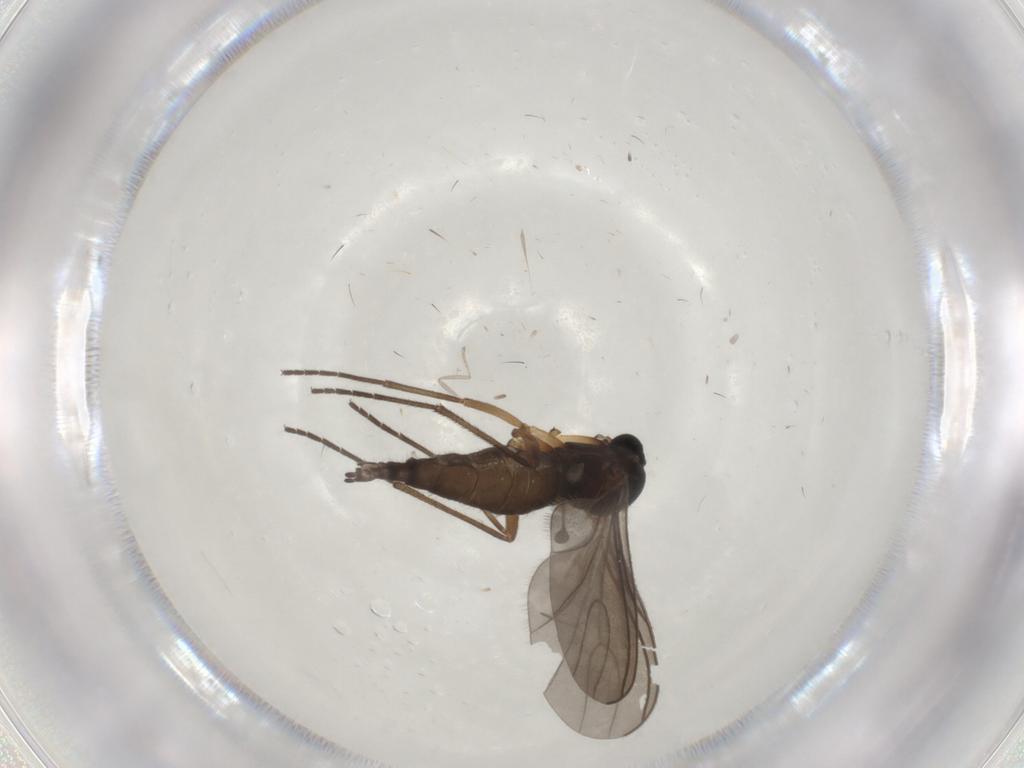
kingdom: Animalia
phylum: Arthropoda
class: Insecta
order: Diptera
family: Sciaridae
